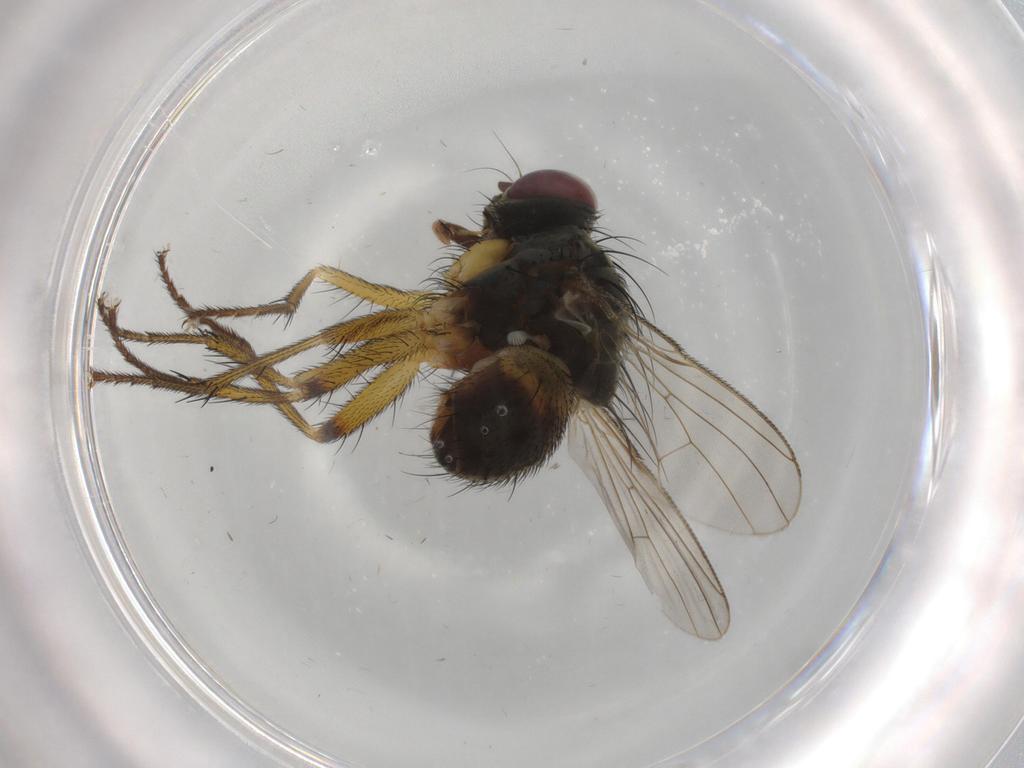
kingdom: Animalia
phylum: Arthropoda
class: Insecta
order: Diptera
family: Muscidae
